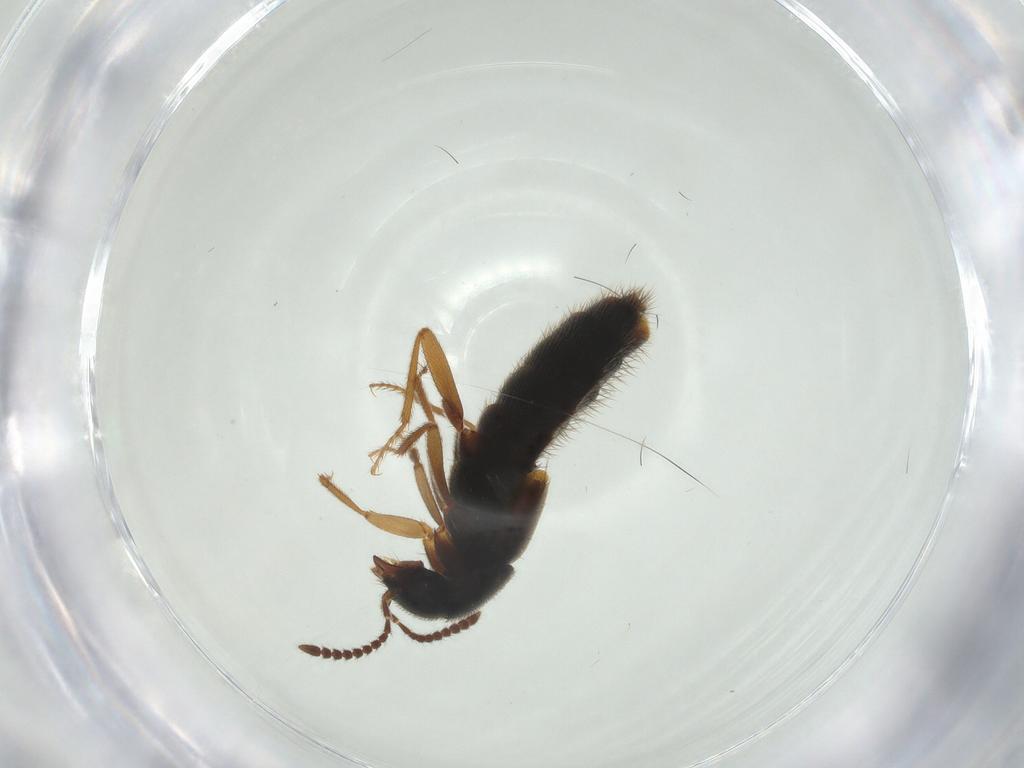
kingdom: Animalia
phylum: Arthropoda
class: Insecta
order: Coleoptera
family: Staphylinidae
